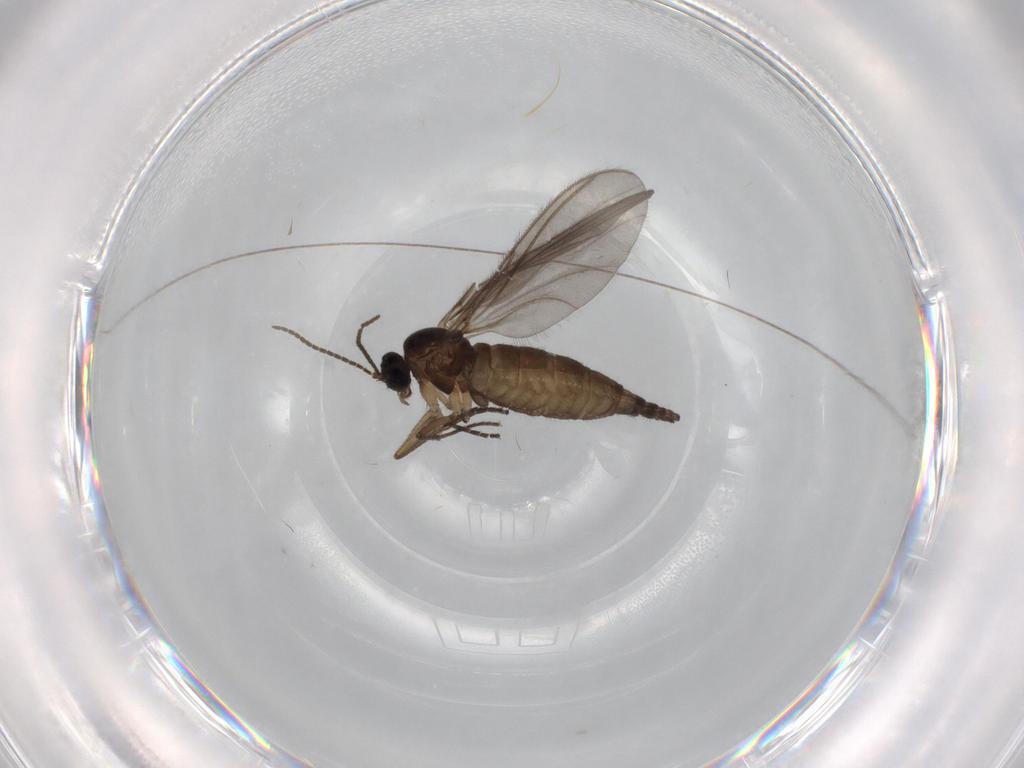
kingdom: Animalia
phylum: Arthropoda
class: Insecta
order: Diptera
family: Sciaridae
